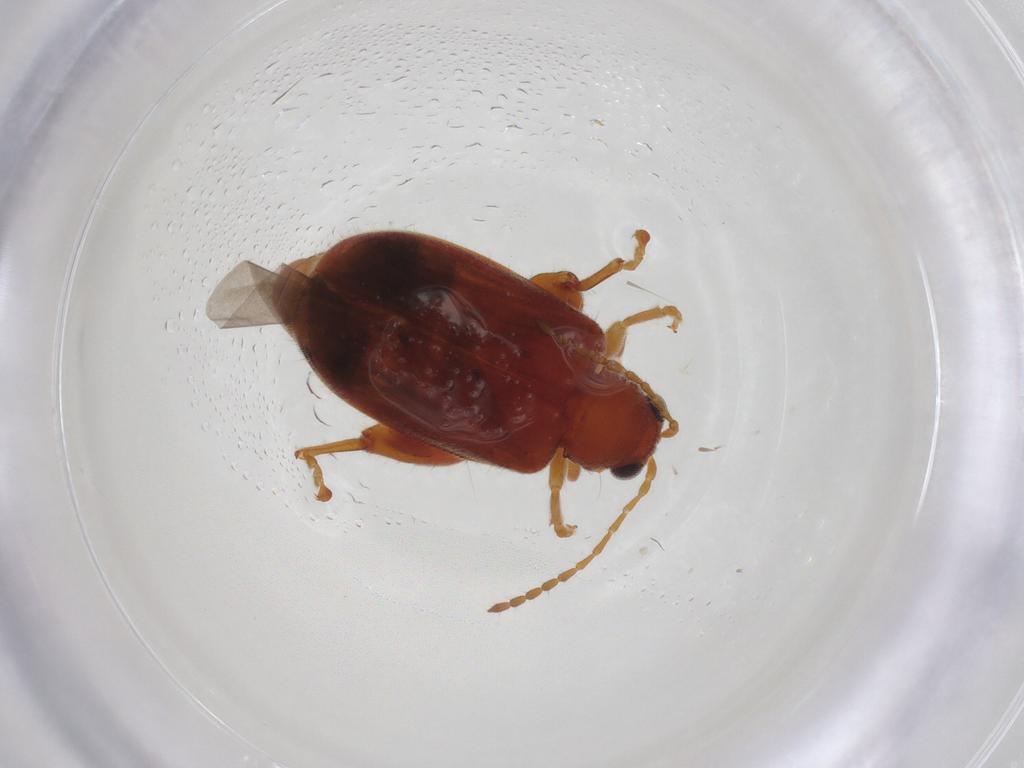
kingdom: Animalia
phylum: Arthropoda
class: Insecta
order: Coleoptera
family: Chrysomelidae
